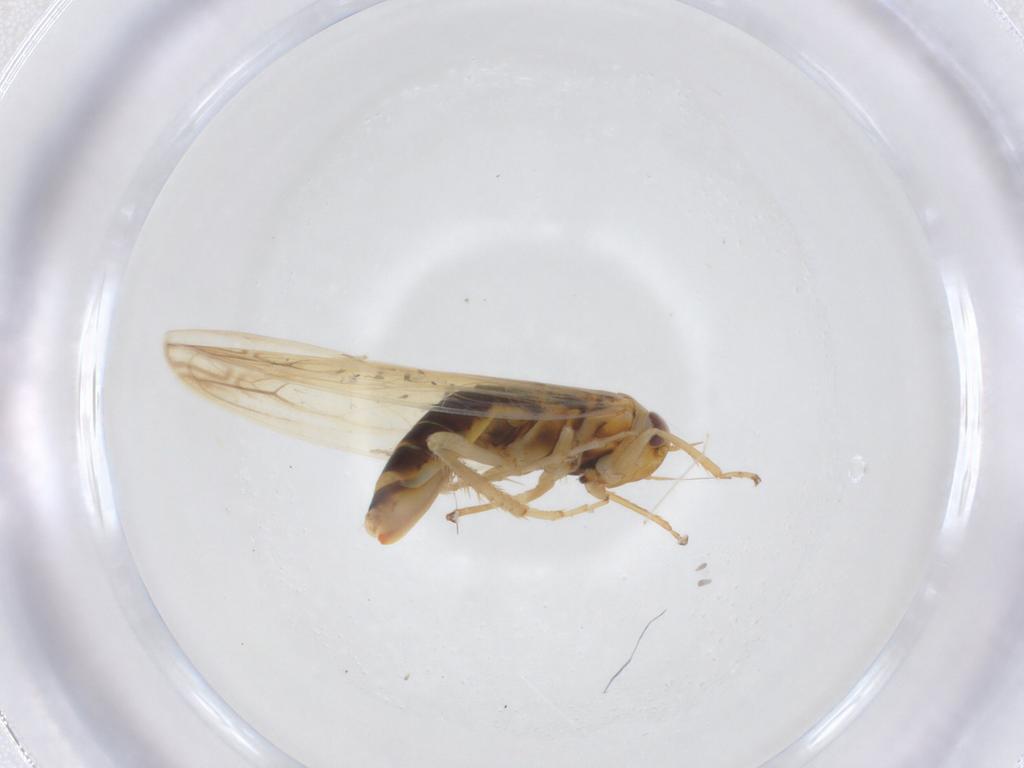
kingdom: Animalia
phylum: Arthropoda
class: Insecta
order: Hemiptera
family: Cicadellidae
